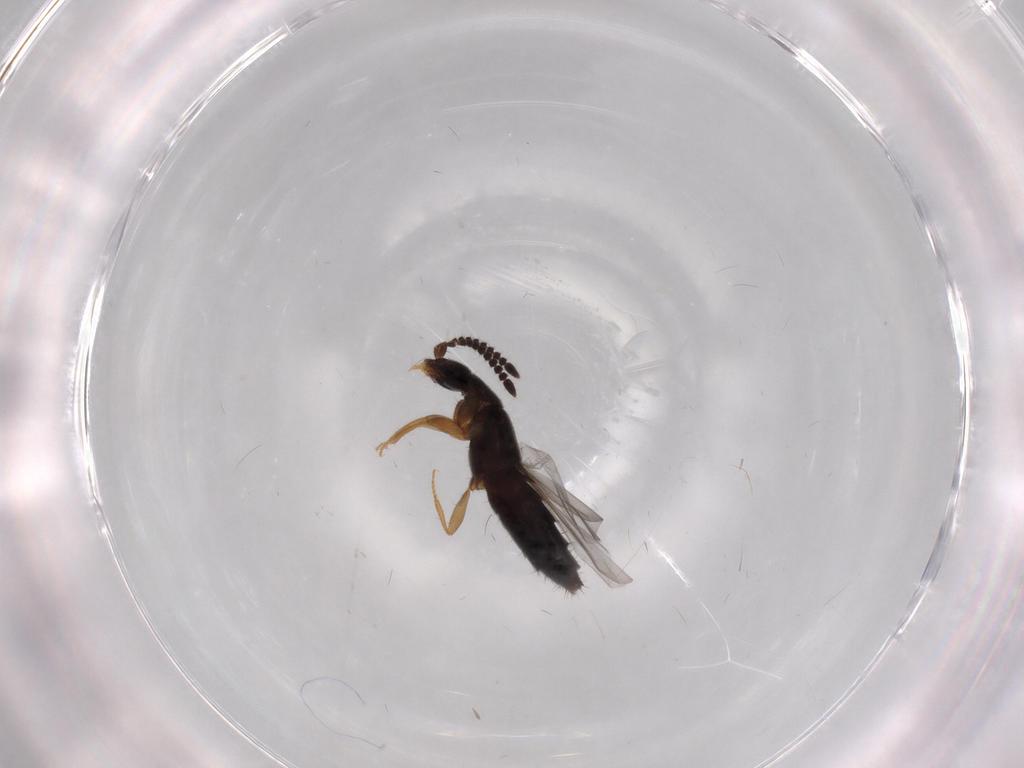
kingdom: Animalia
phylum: Arthropoda
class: Insecta
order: Coleoptera
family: Staphylinidae
